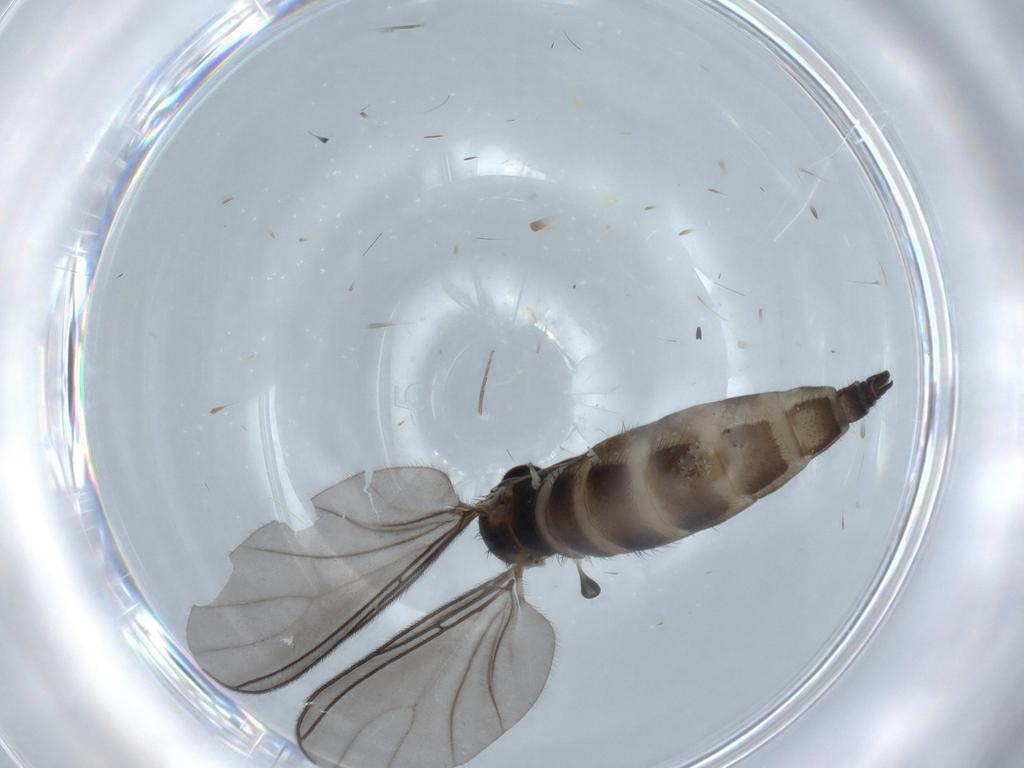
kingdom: Animalia
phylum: Arthropoda
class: Insecta
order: Diptera
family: Sciaridae
